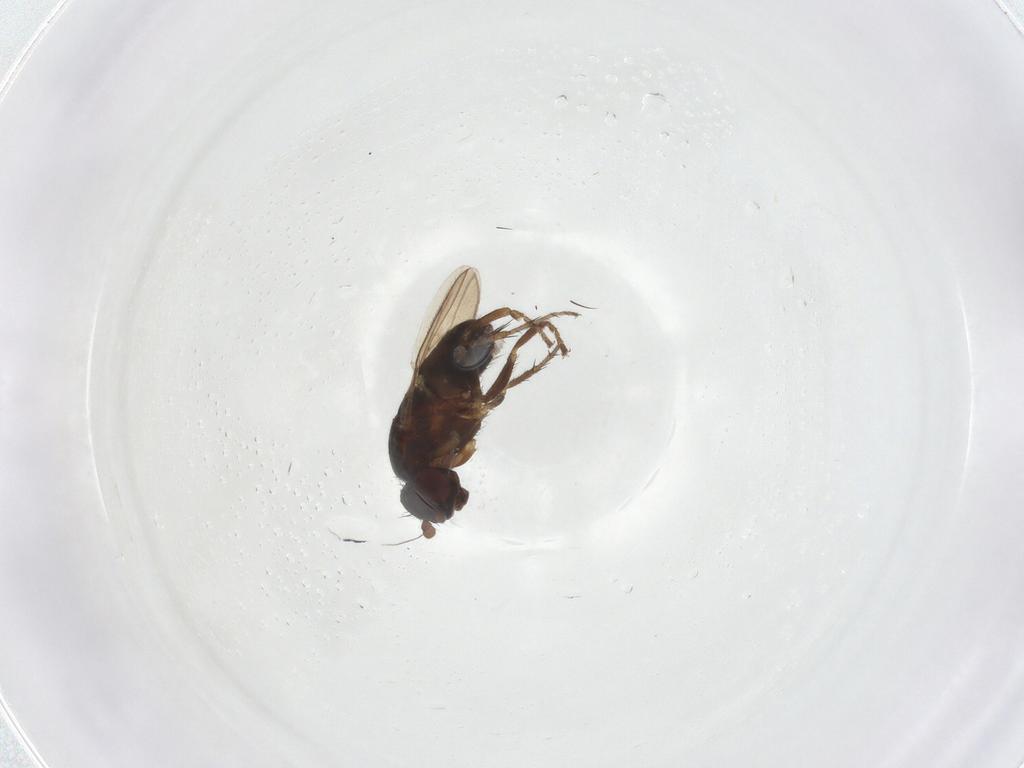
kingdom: Animalia
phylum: Arthropoda
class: Insecta
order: Diptera
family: Sphaeroceridae
